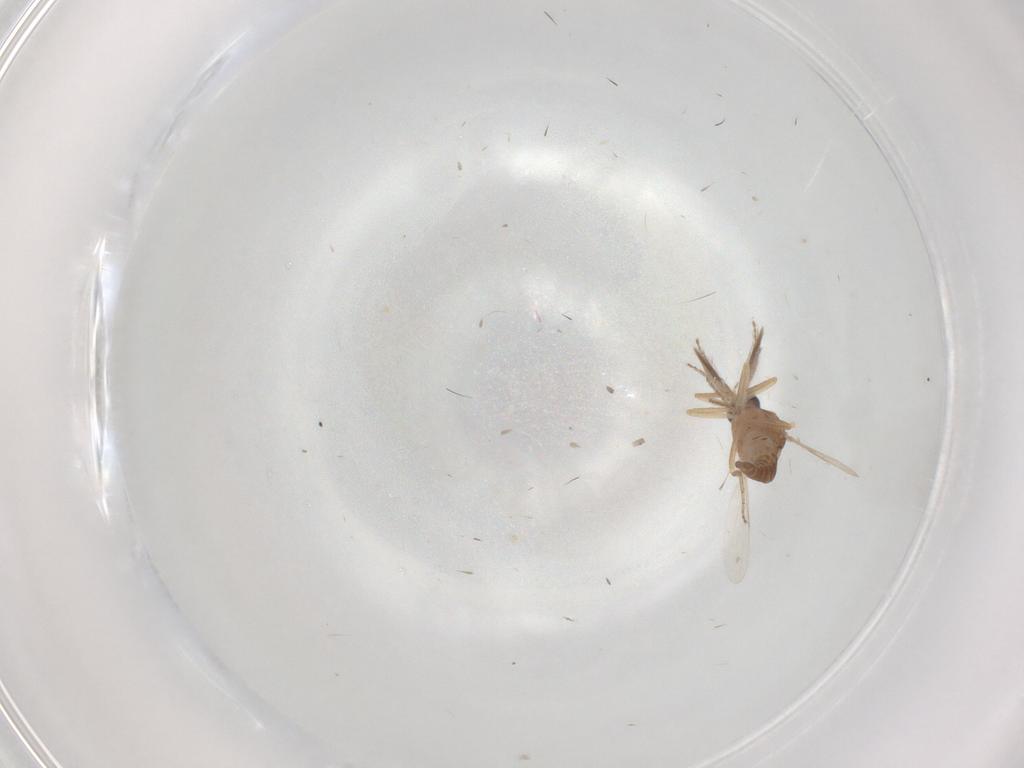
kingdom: Animalia
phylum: Arthropoda
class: Insecta
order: Diptera
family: Ceratopogonidae
